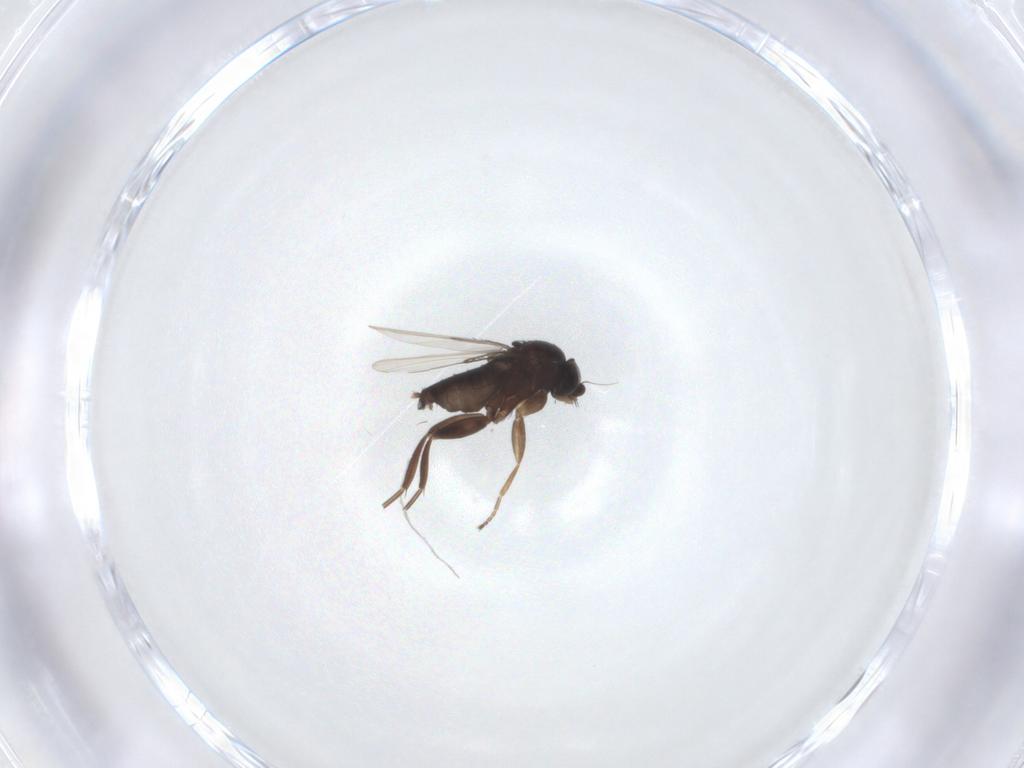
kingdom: Animalia
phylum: Arthropoda
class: Insecta
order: Diptera
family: Phoridae
